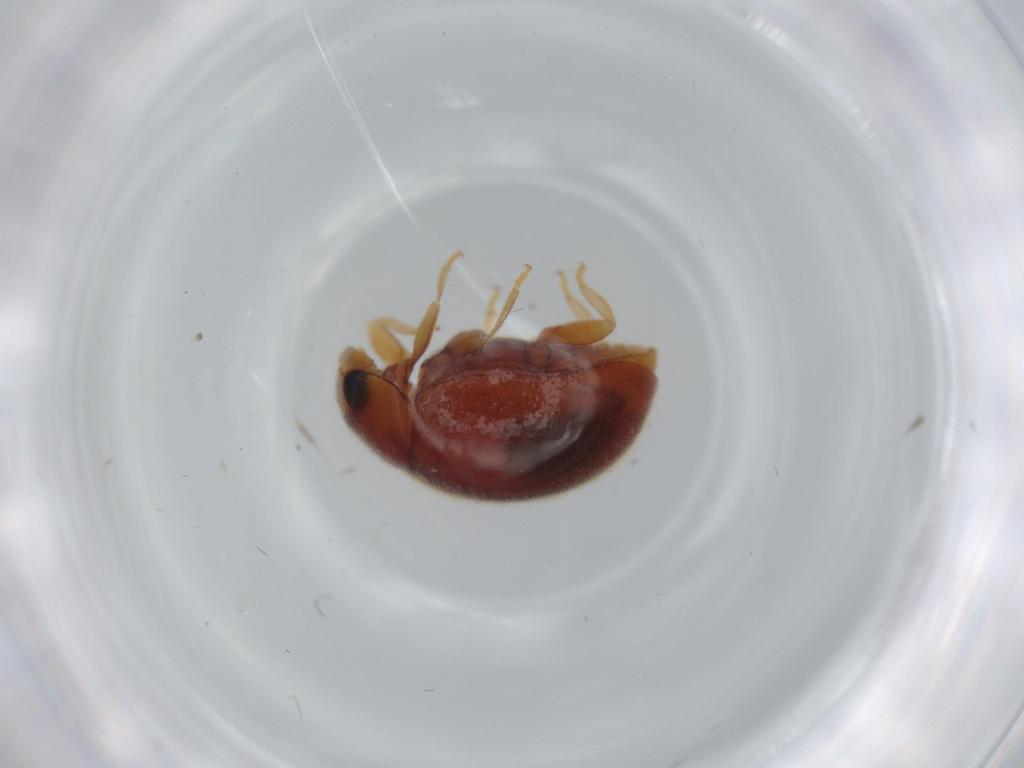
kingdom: Animalia
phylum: Arthropoda
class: Insecta
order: Coleoptera
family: Coccinellidae
